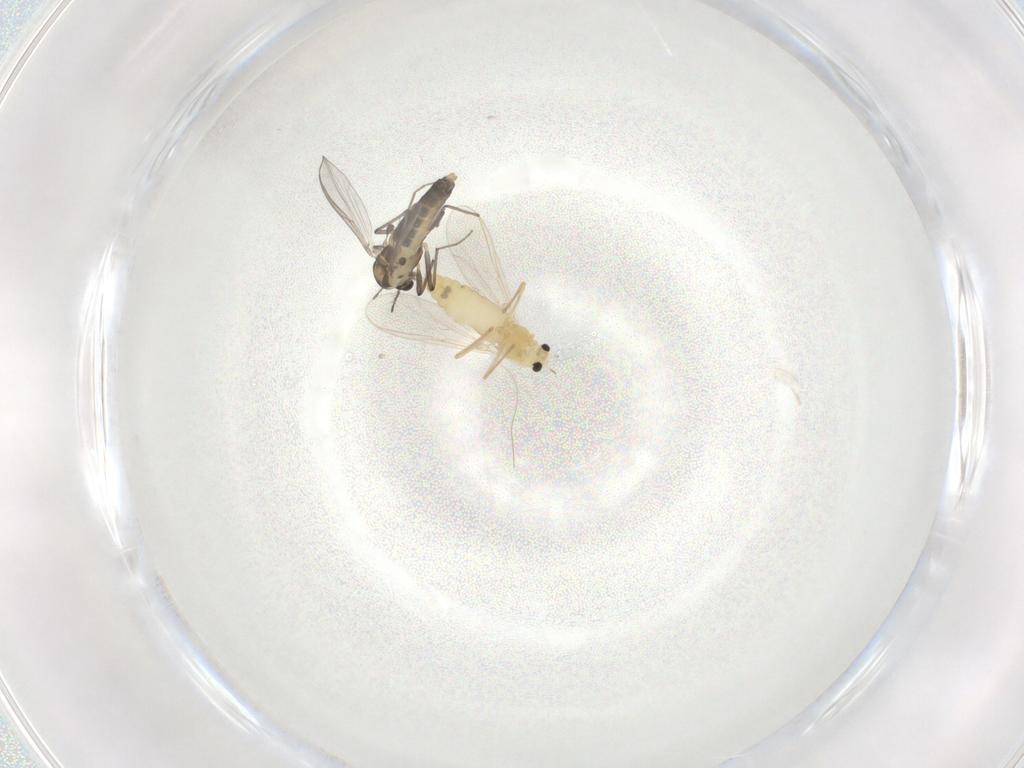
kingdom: Animalia
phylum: Arthropoda
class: Insecta
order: Diptera
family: Chironomidae
